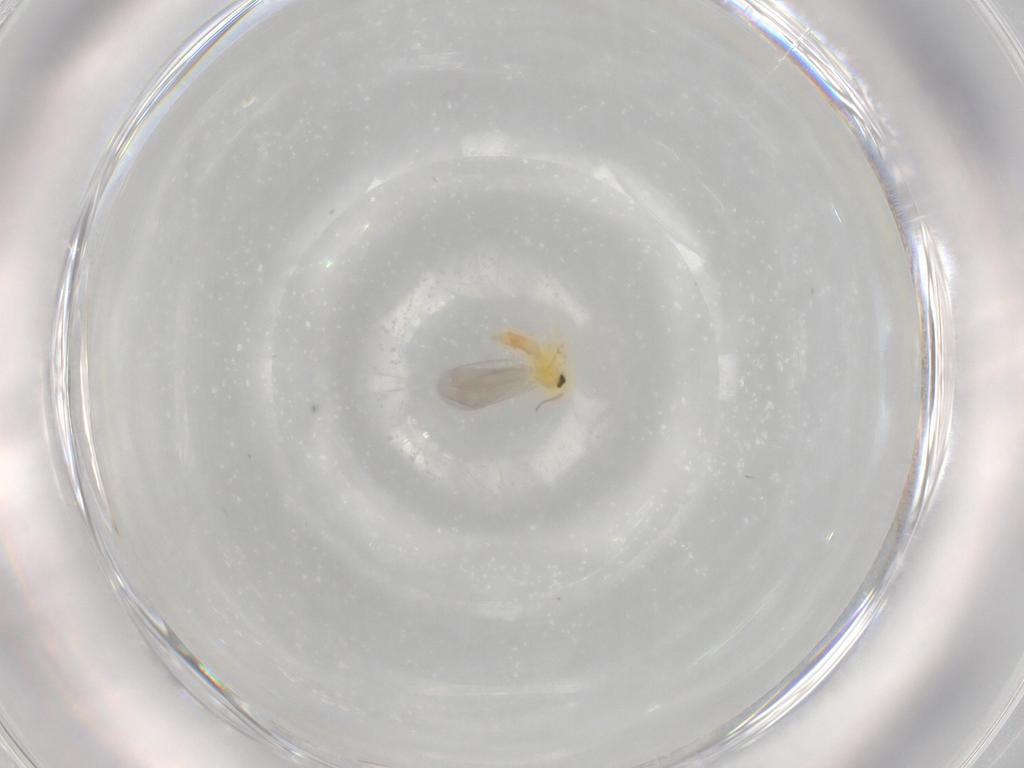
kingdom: Animalia
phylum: Arthropoda
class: Insecta
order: Hemiptera
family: Aleyrodidae
